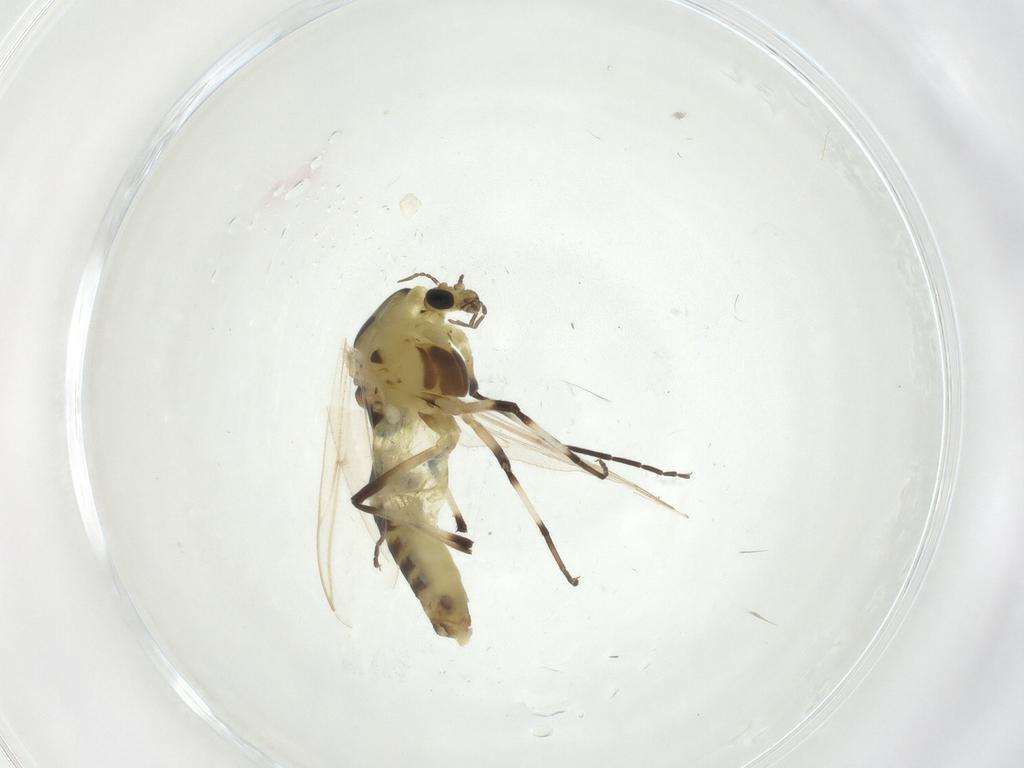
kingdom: Animalia
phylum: Arthropoda
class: Insecta
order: Diptera
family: Chironomidae
